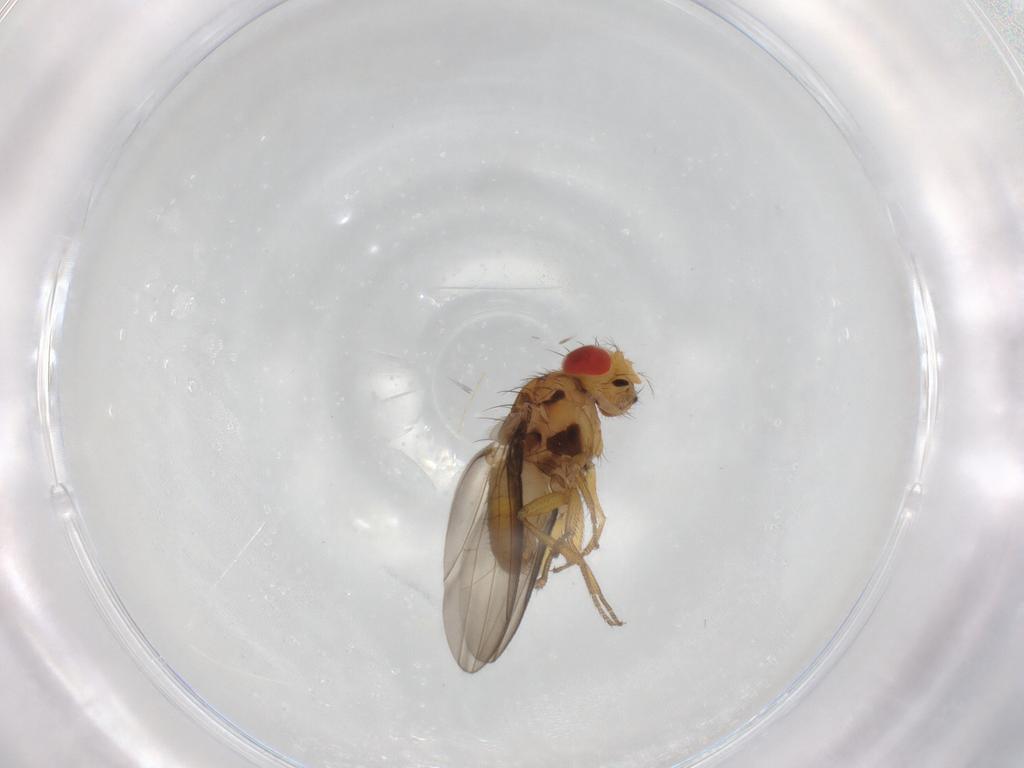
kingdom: Animalia
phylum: Arthropoda
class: Insecta
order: Diptera
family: Drosophilidae
